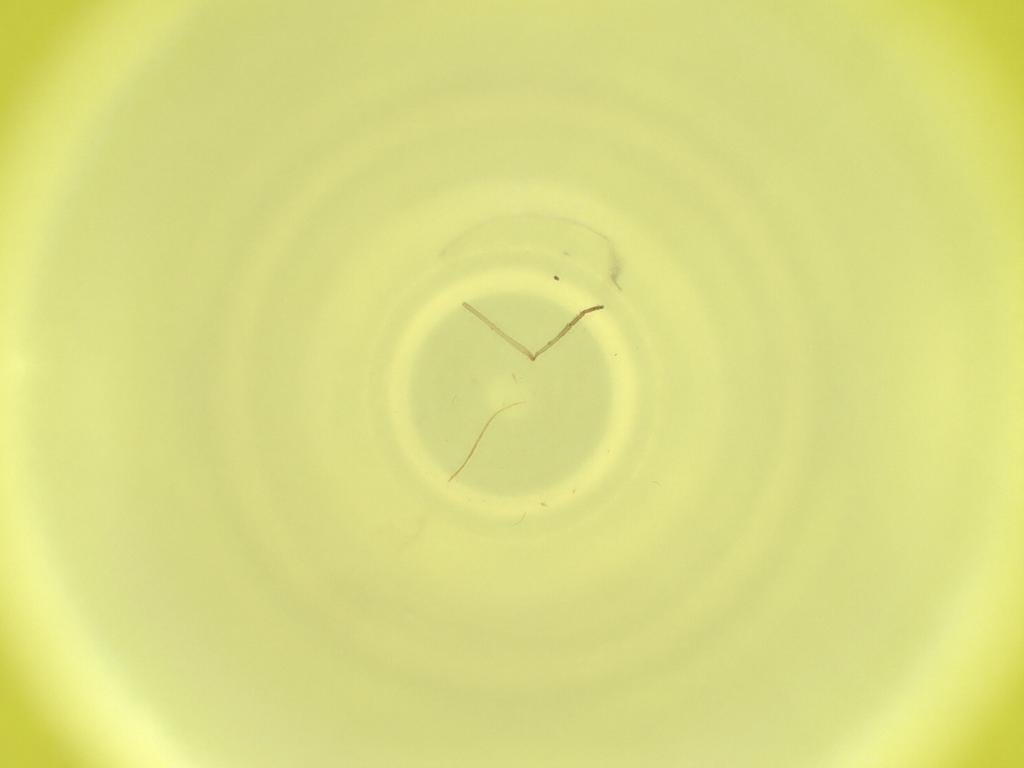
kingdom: Animalia
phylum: Arthropoda
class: Insecta
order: Diptera
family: Cecidomyiidae
